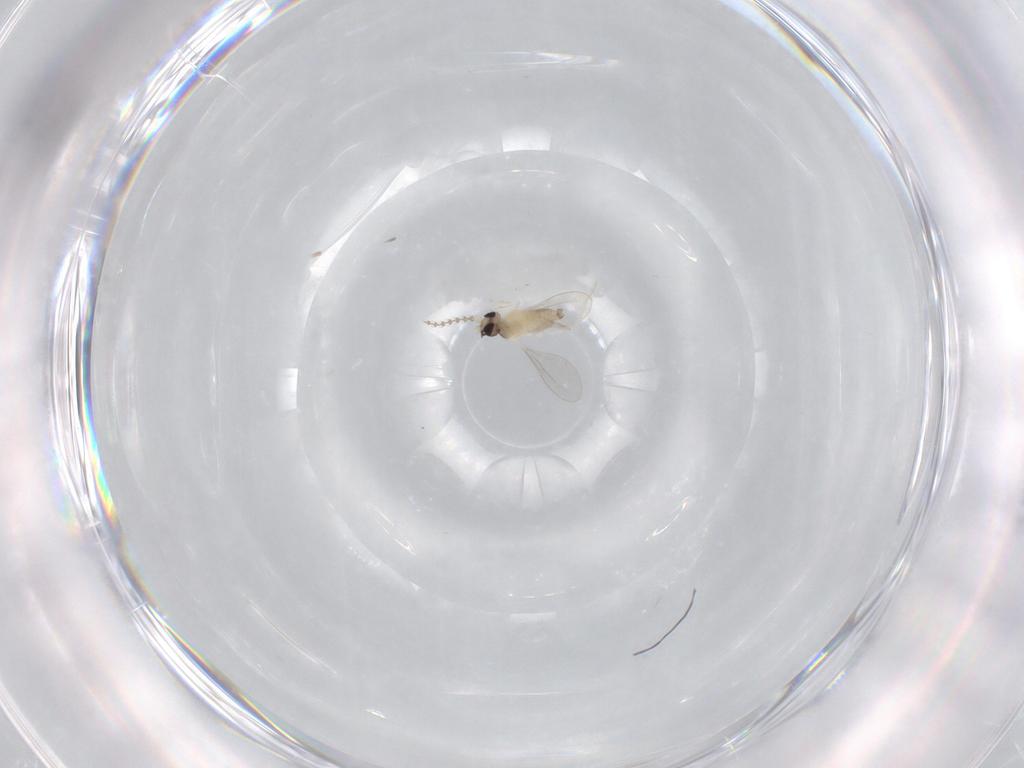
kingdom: Animalia
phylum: Arthropoda
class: Insecta
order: Diptera
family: Cecidomyiidae
